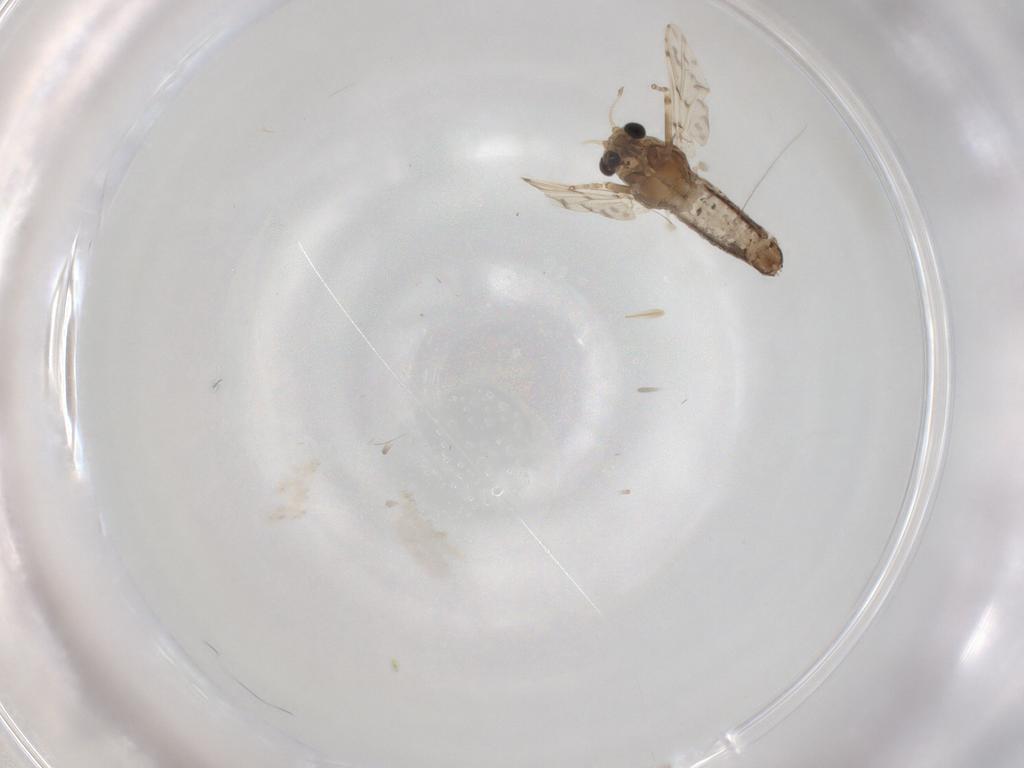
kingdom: Animalia
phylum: Arthropoda
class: Insecta
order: Diptera
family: Chironomidae
